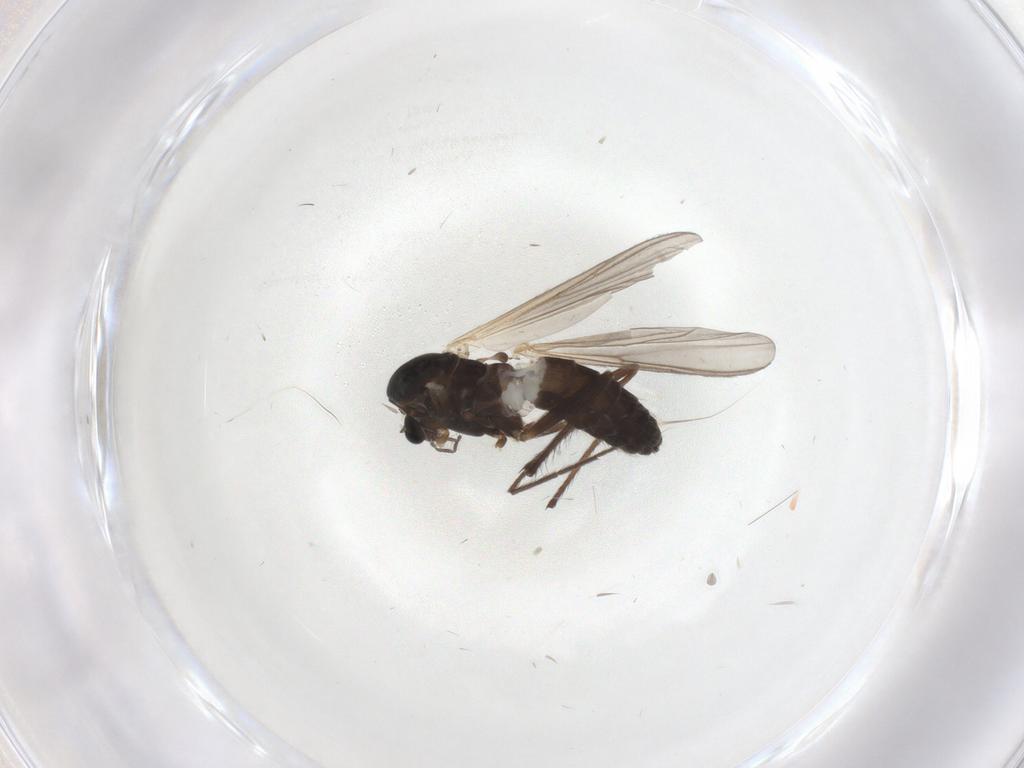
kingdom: Animalia
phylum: Arthropoda
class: Insecta
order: Diptera
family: Chironomidae
